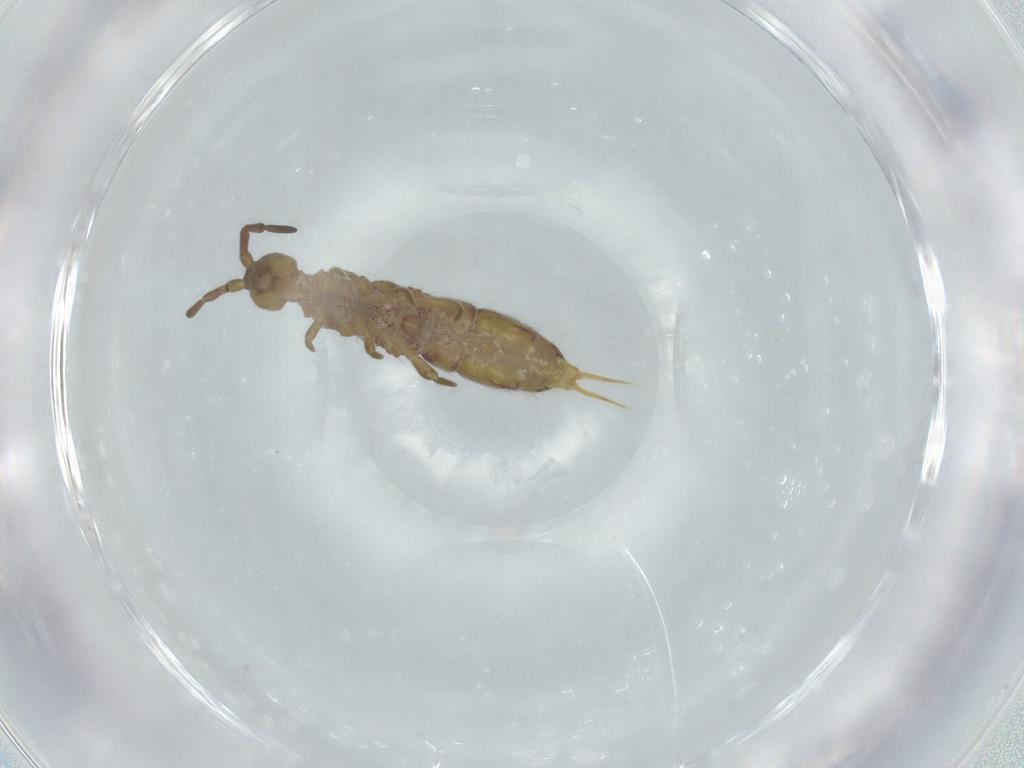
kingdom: Animalia
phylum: Arthropoda
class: Collembola
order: Entomobryomorpha
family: Isotomidae
